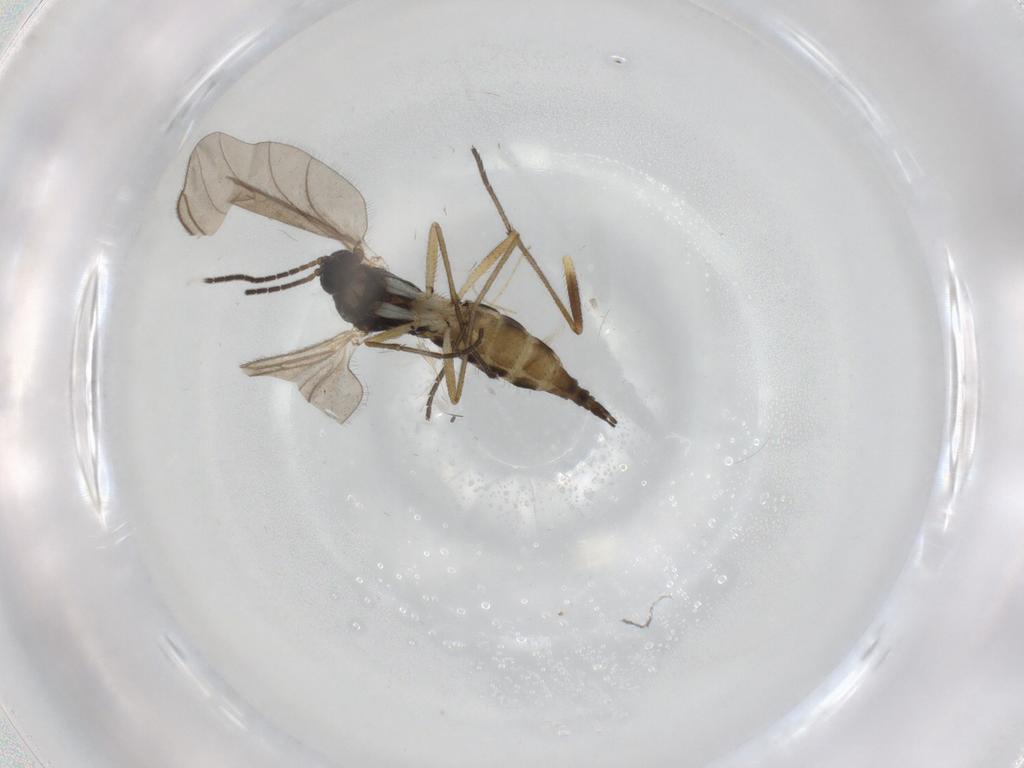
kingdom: Animalia
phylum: Arthropoda
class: Insecta
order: Diptera
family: Sciaridae
